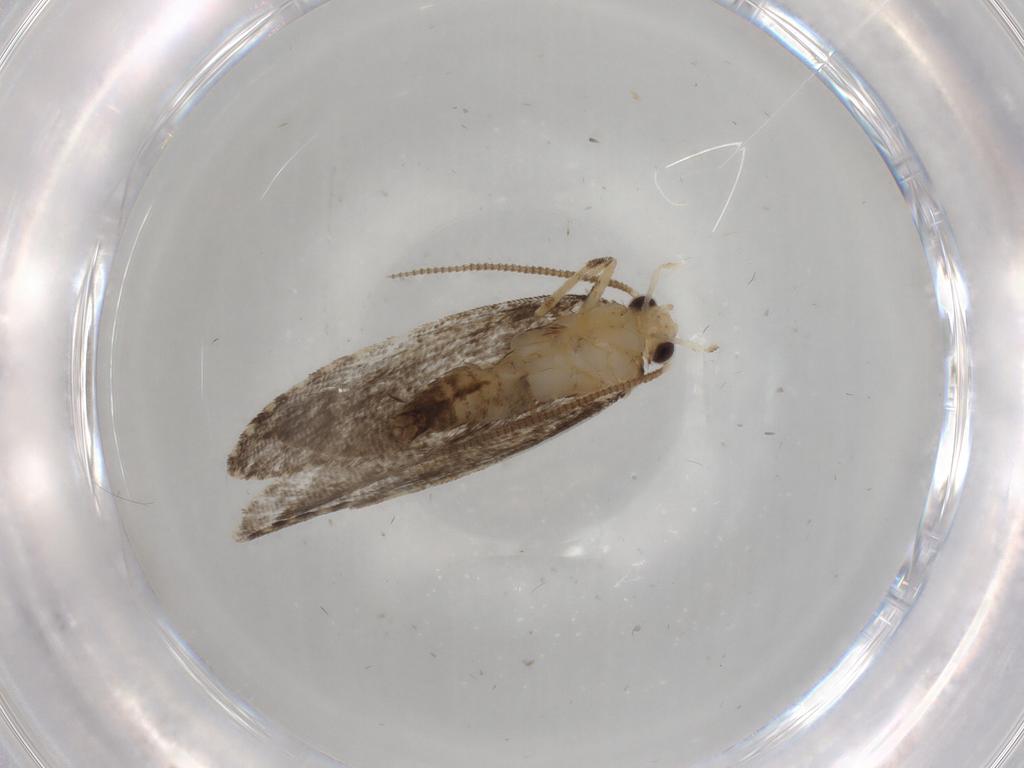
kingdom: Animalia
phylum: Arthropoda
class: Insecta
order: Lepidoptera
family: Tineidae
